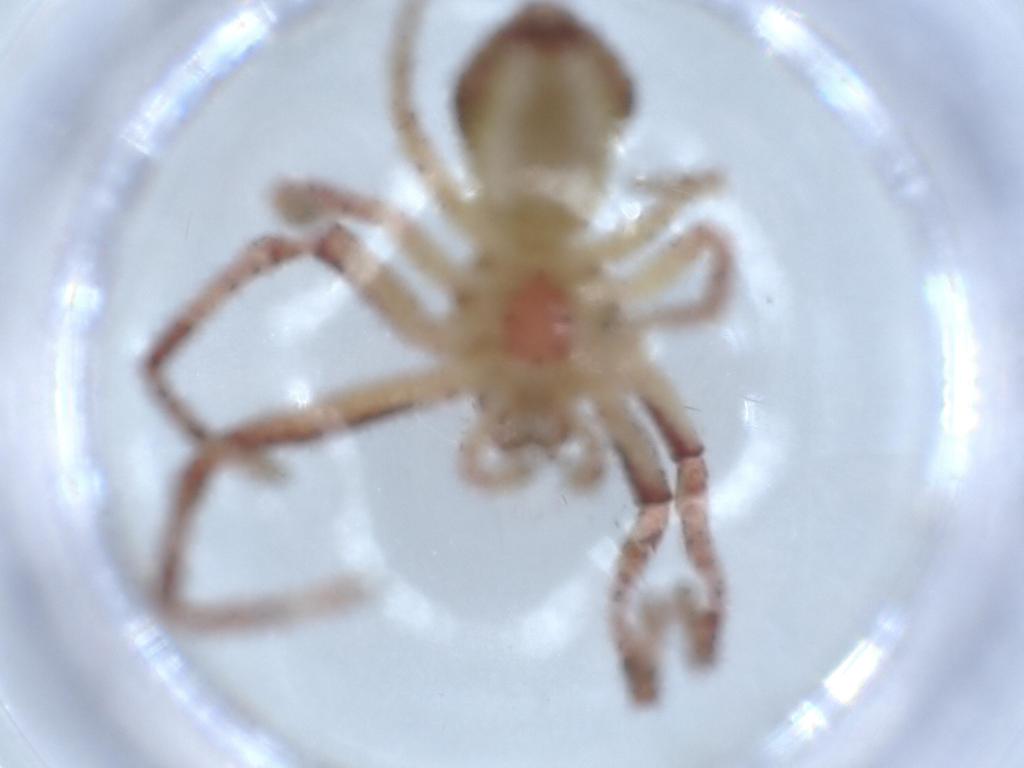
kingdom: Animalia
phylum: Arthropoda
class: Arachnida
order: Araneae
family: Thomisidae
